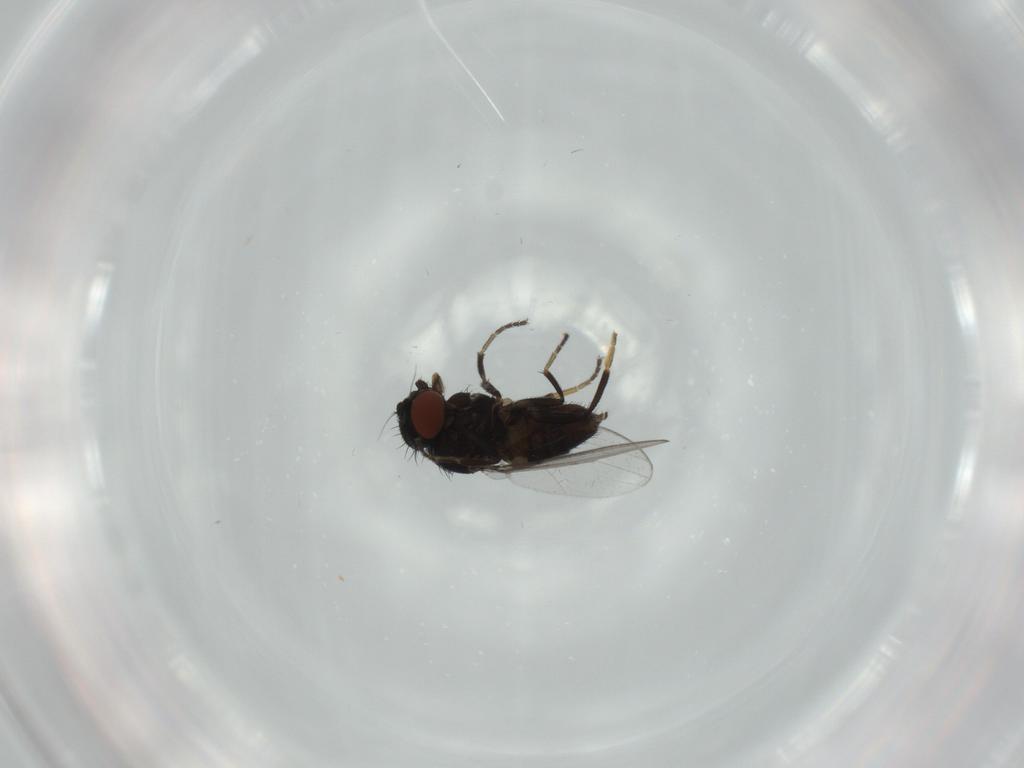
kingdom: Animalia
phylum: Arthropoda
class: Insecta
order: Diptera
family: Milichiidae
